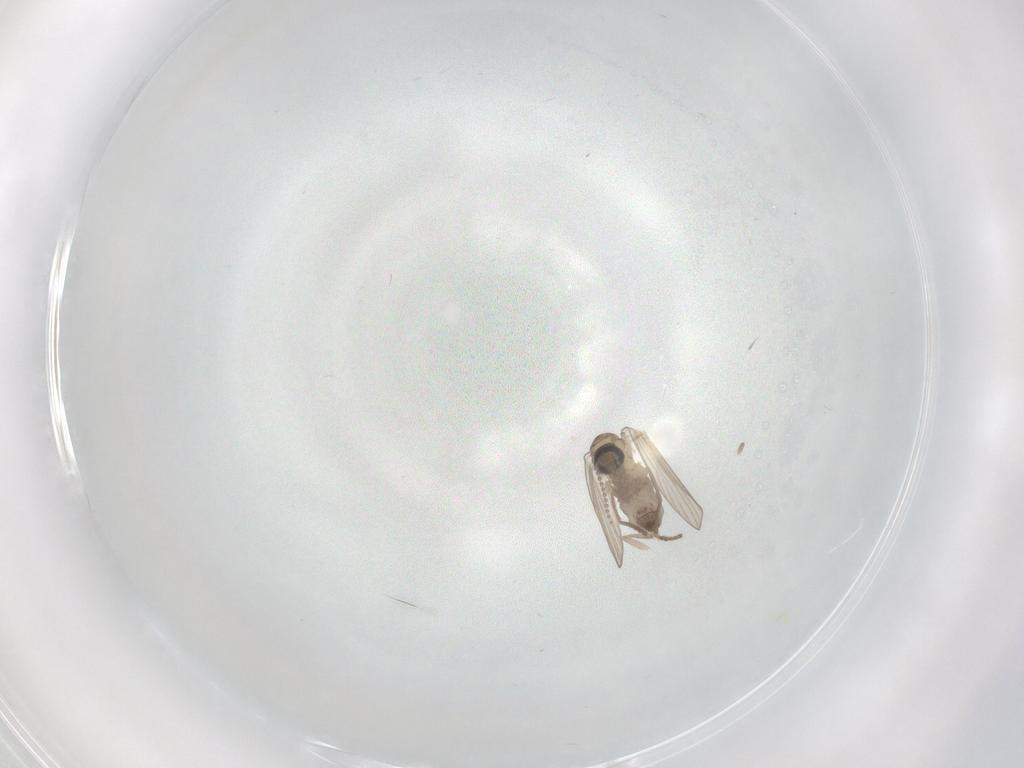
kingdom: Animalia
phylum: Arthropoda
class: Insecta
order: Diptera
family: Psychodidae
